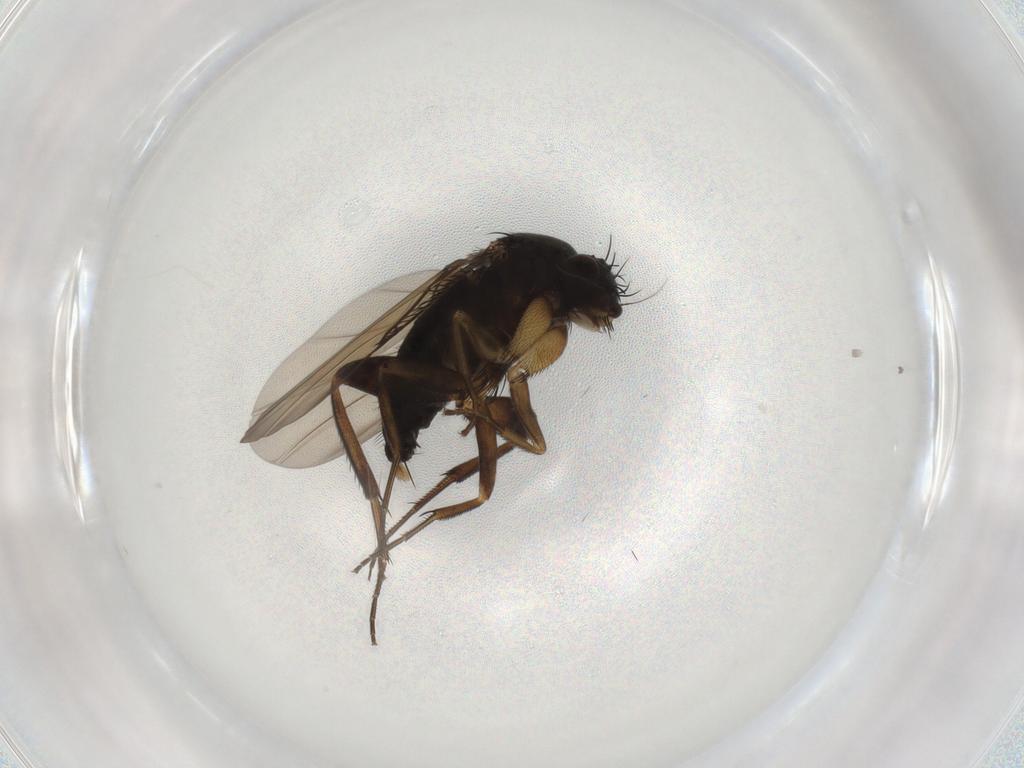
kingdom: Animalia
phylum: Arthropoda
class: Insecta
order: Diptera
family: Phoridae
